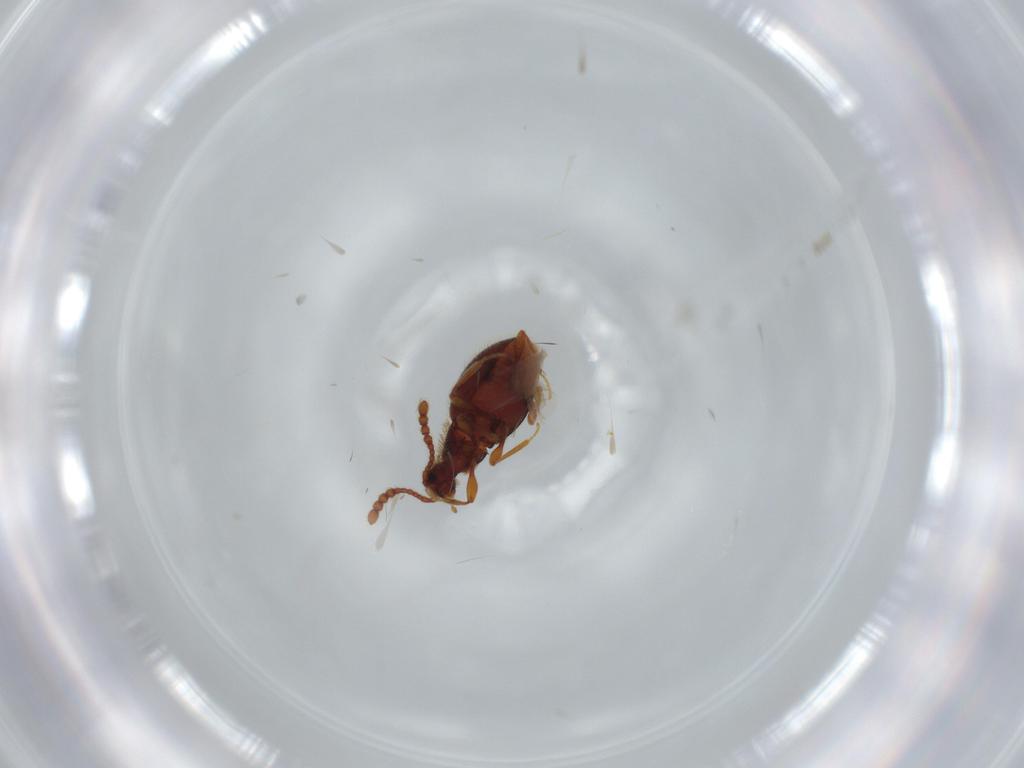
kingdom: Animalia
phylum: Arthropoda
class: Insecta
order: Coleoptera
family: Staphylinidae
